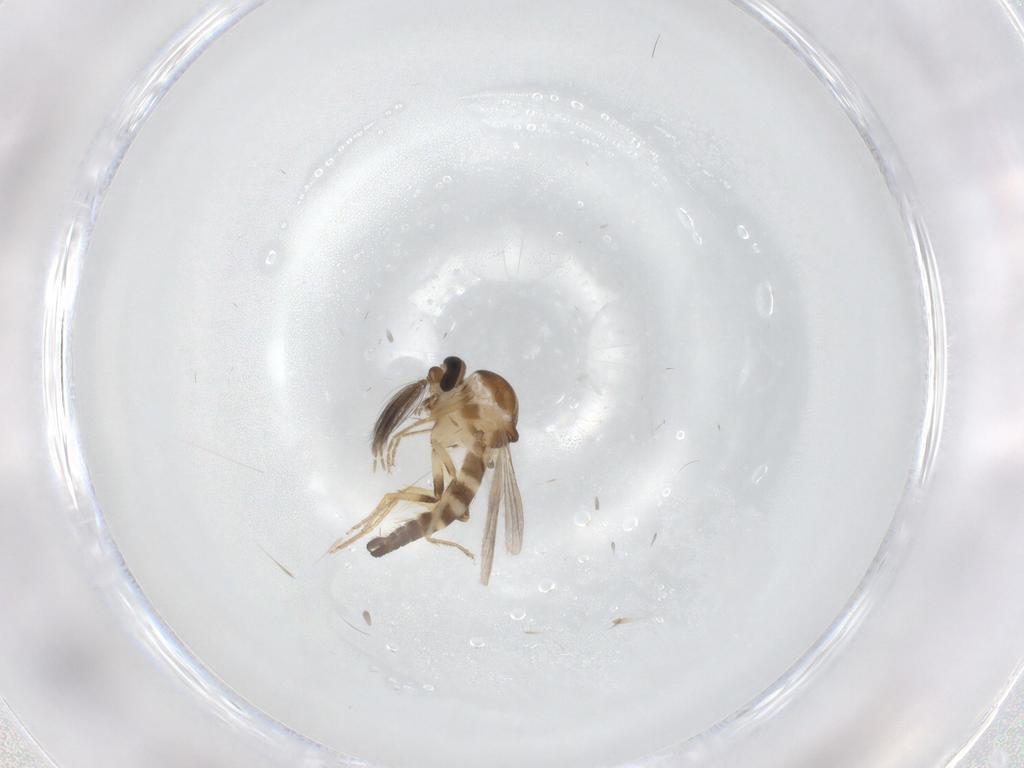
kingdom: Animalia
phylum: Arthropoda
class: Insecta
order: Diptera
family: Ceratopogonidae
